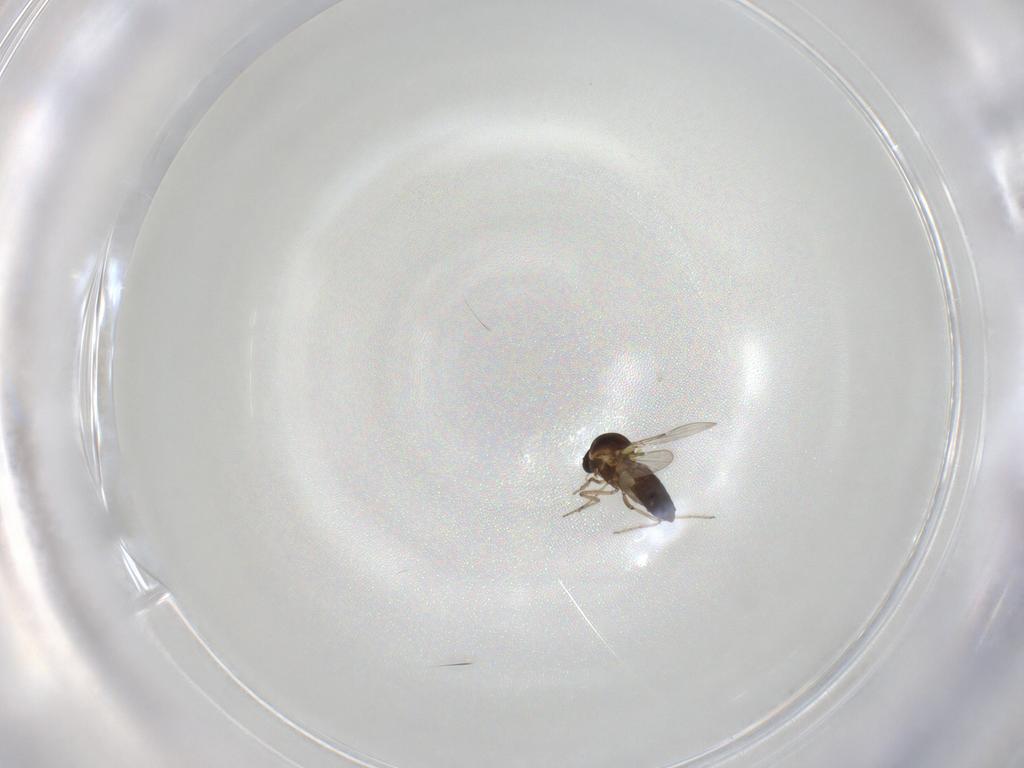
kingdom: Animalia
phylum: Arthropoda
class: Insecta
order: Diptera
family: Ceratopogonidae
